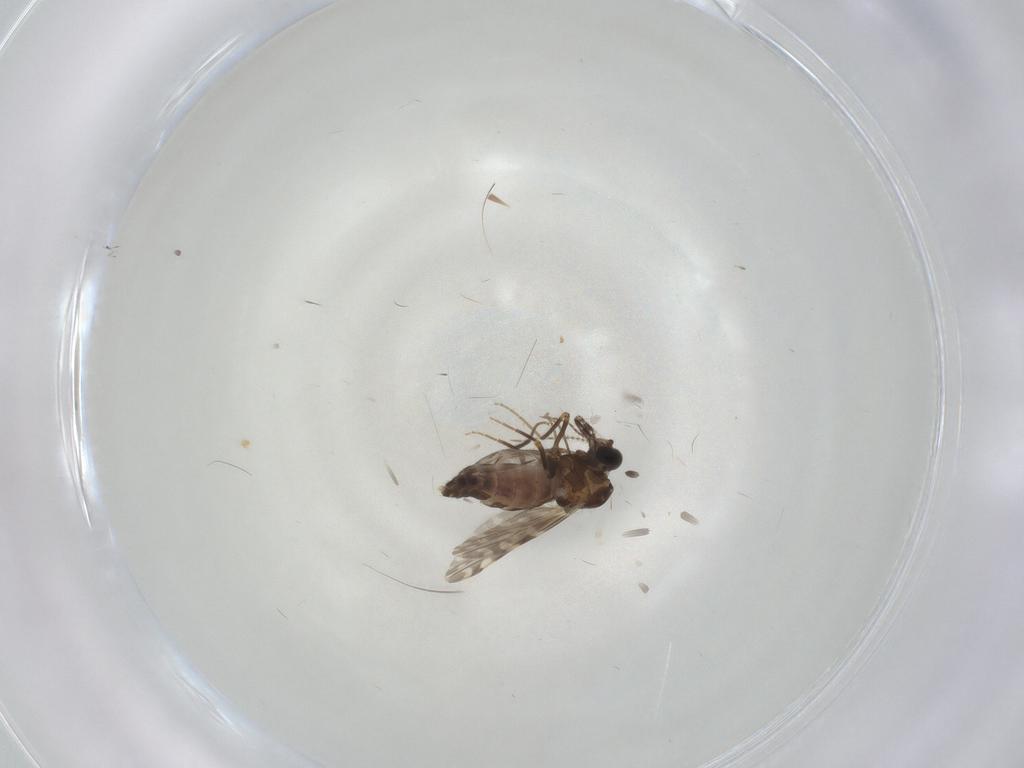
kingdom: Animalia
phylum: Arthropoda
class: Insecta
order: Diptera
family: Ceratopogonidae
